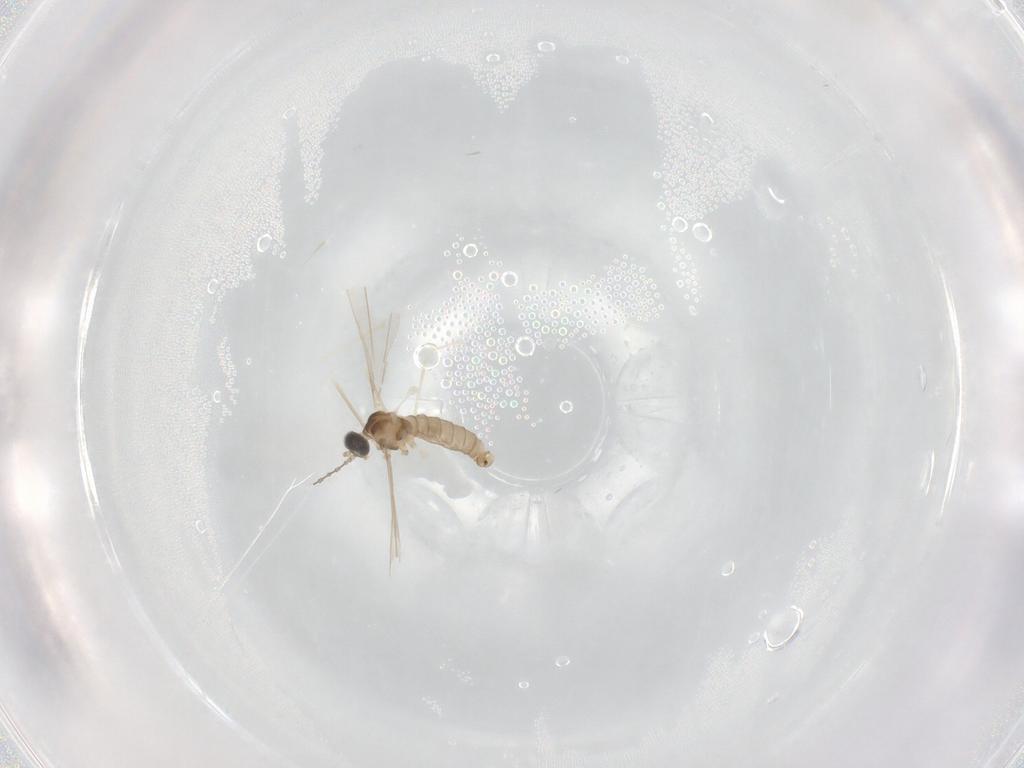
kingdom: Animalia
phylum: Arthropoda
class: Insecta
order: Diptera
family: Cecidomyiidae
